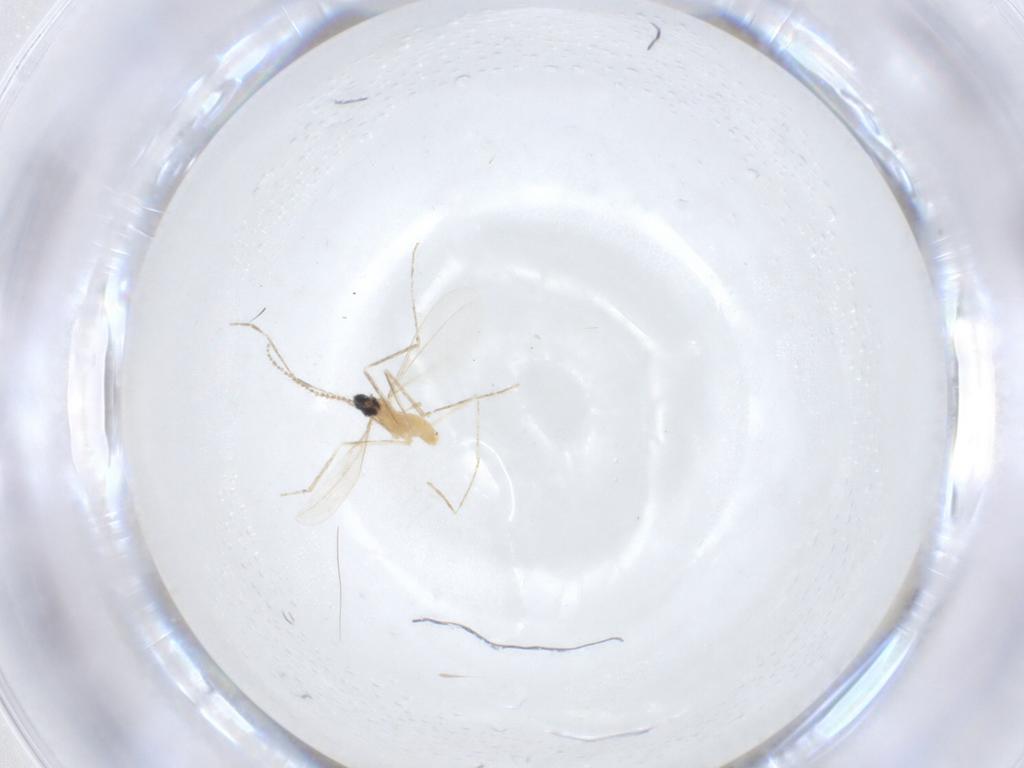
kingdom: Animalia
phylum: Arthropoda
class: Insecta
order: Diptera
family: Cecidomyiidae
